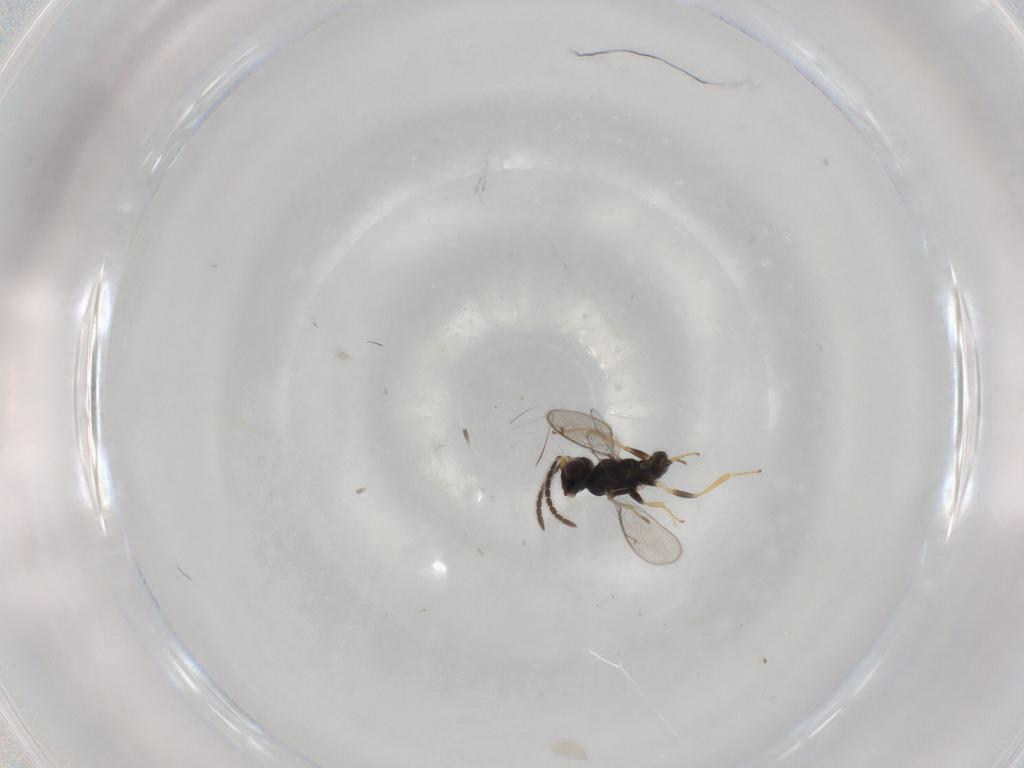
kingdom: Animalia
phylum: Arthropoda
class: Insecta
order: Hymenoptera
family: Eupelmidae
